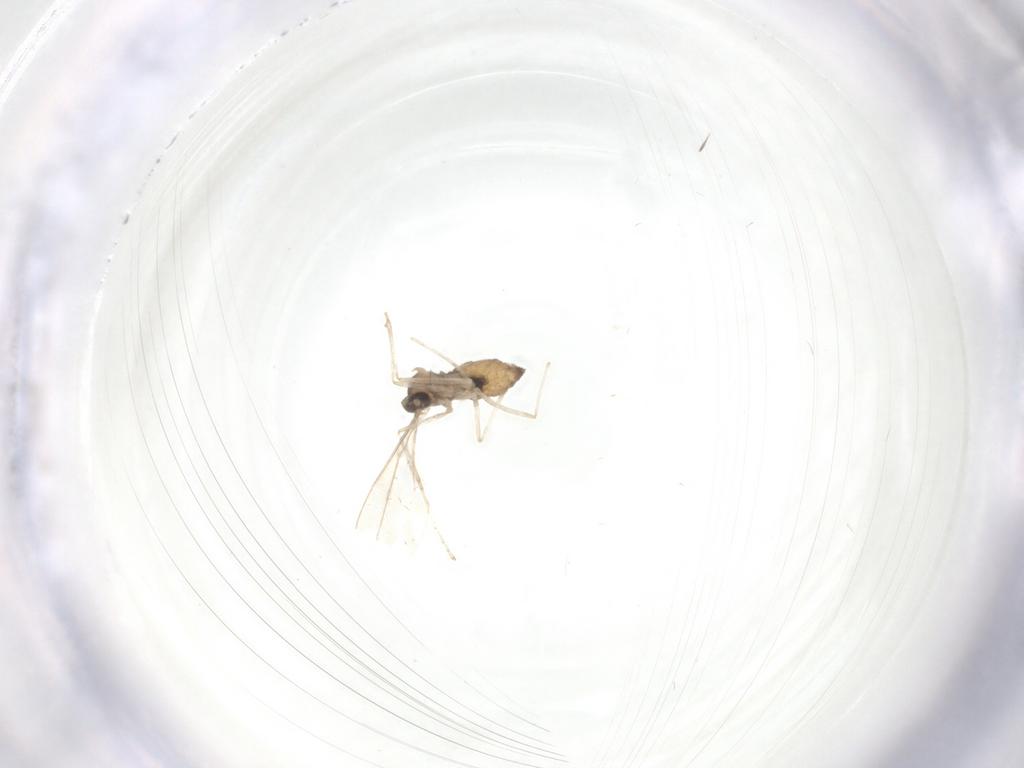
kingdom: Animalia
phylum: Arthropoda
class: Insecta
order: Diptera
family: Cecidomyiidae
